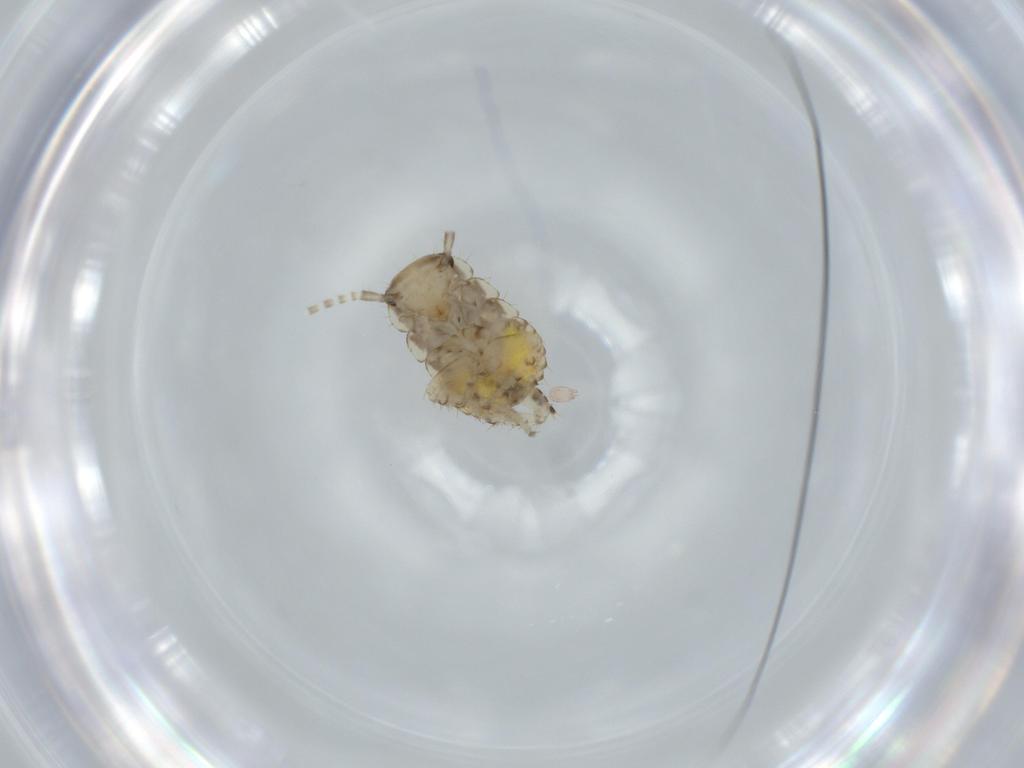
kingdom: Animalia
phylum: Arthropoda
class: Insecta
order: Blattodea
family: Ectobiidae
